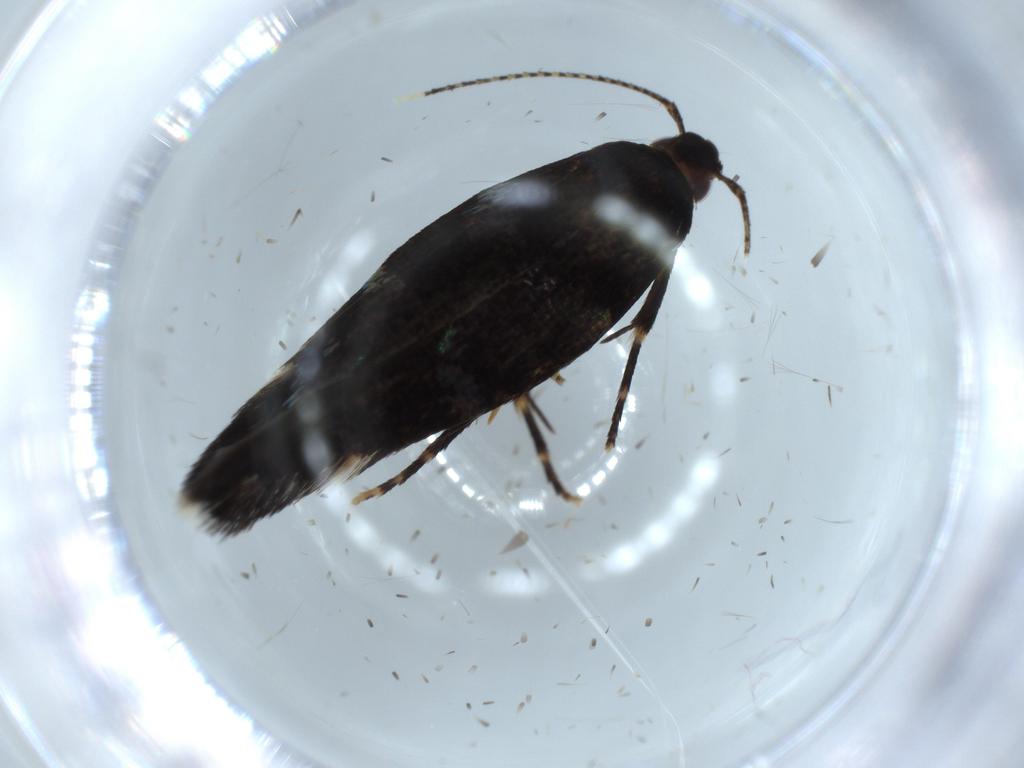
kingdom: Animalia
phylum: Arthropoda
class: Insecta
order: Lepidoptera
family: Cosmopterigidae
